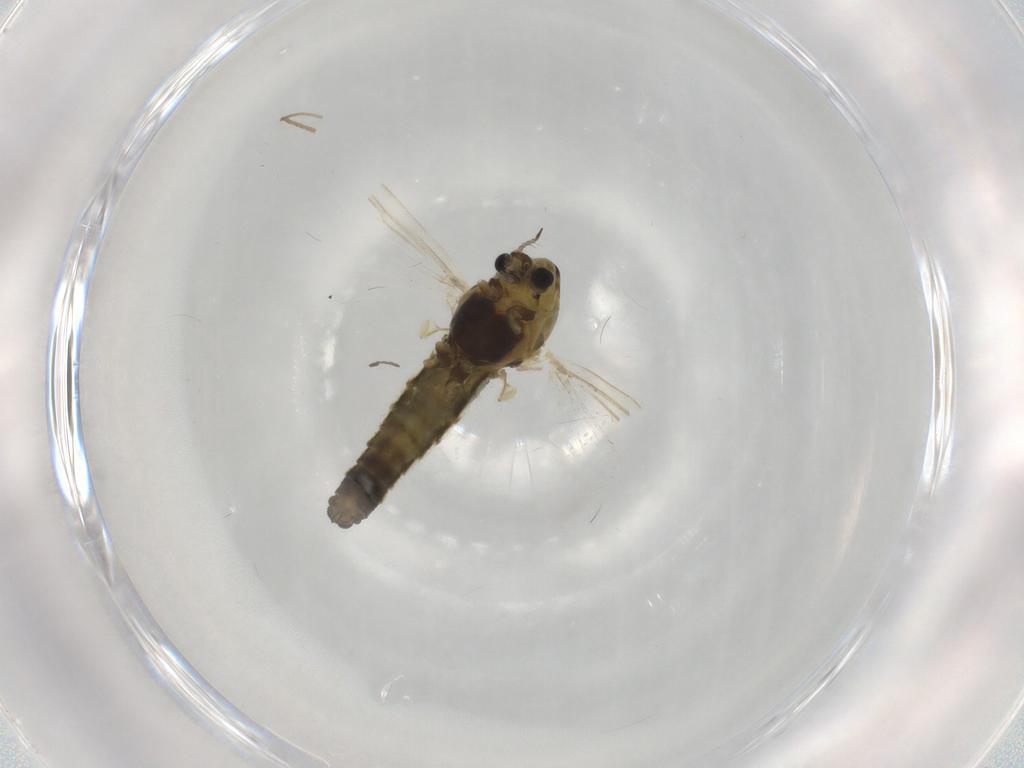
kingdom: Animalia
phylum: Arthropoda
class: Insecta
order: Diptera
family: Chironomidae
